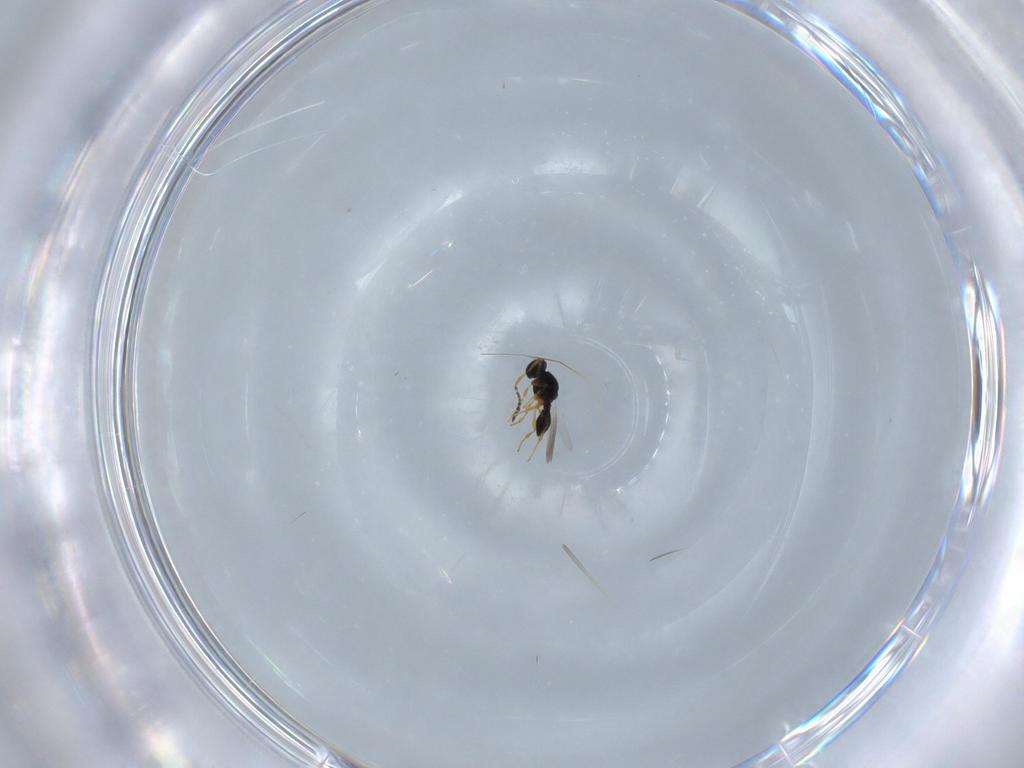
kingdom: Animalia
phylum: Arthropoda
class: Insecta
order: Hymenoptera
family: Platygastridae
